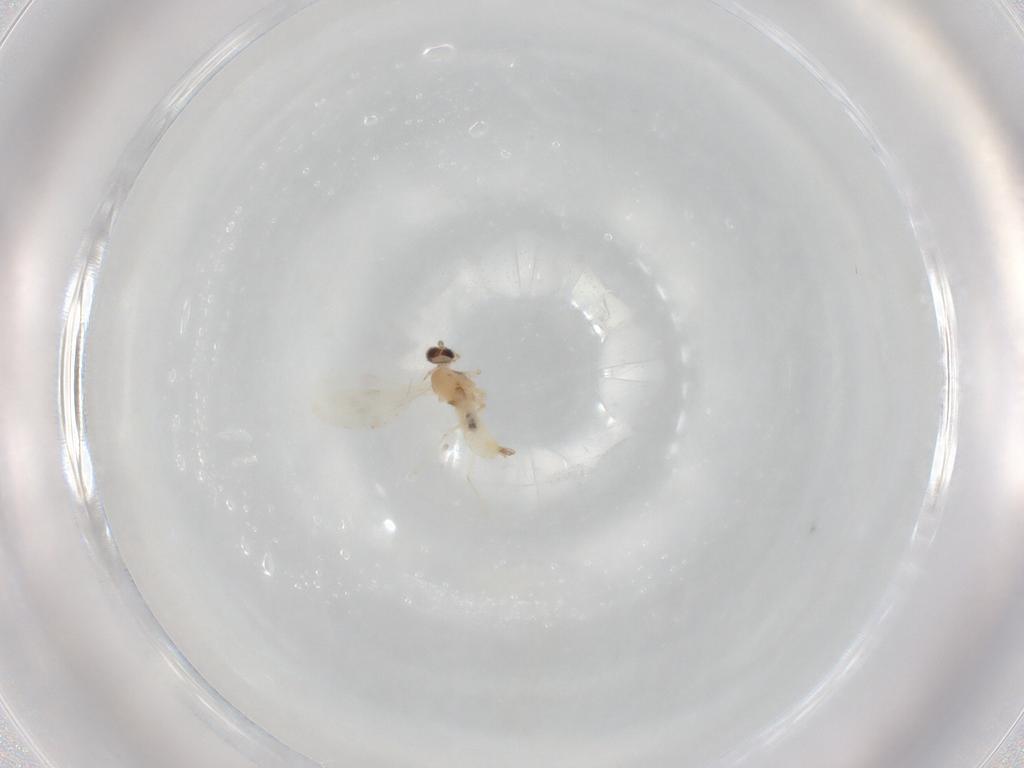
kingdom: Animalia
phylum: Arthropoda
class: Insecta
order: Diptera
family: Cecidomyiidae
